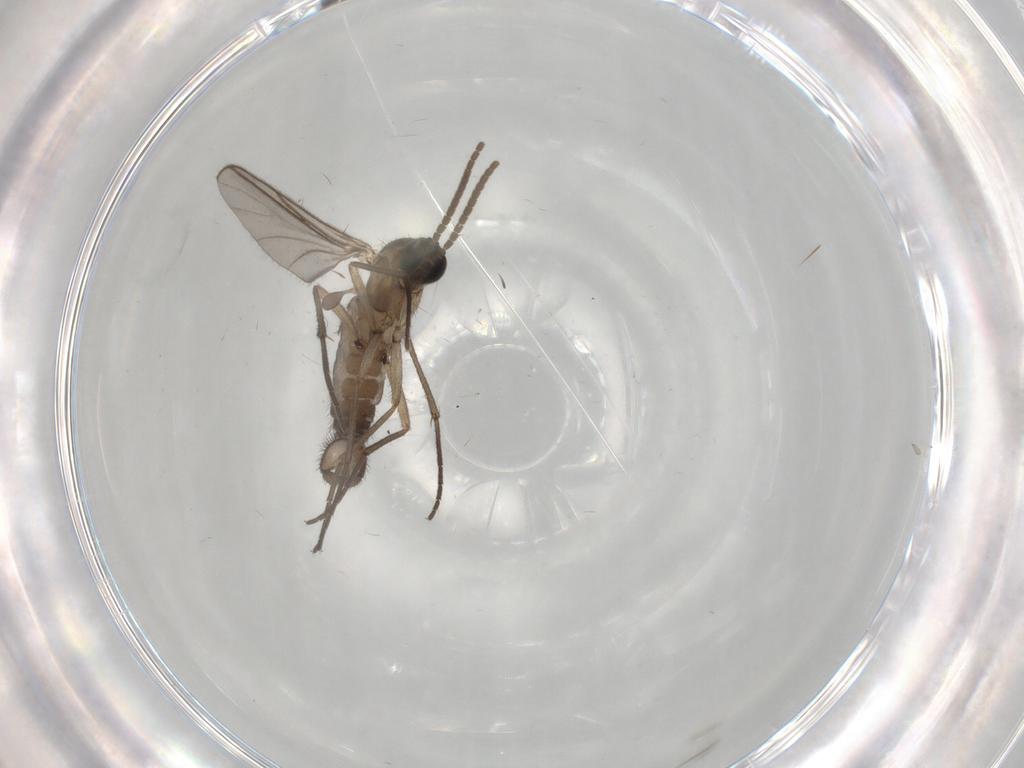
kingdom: Animalia
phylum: Arthropoda
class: Insecta
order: Diptera
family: Sciaridae
